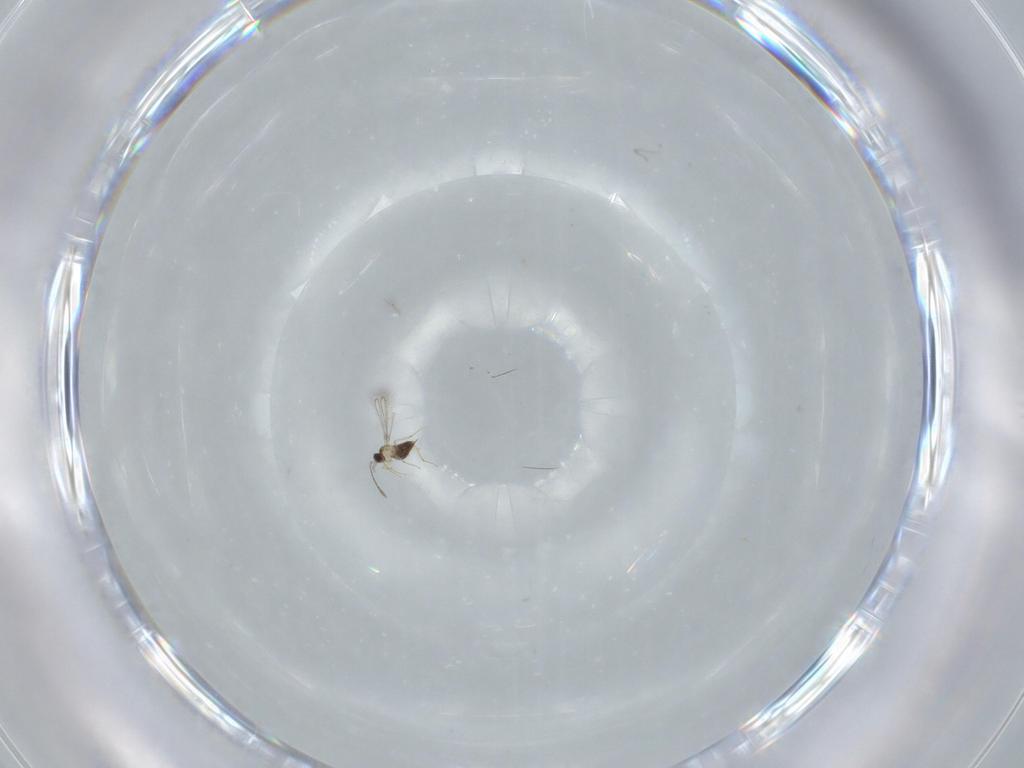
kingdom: Animalia
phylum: Arthropoda
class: Insecta
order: Hymenoptera
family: Mymaridae
